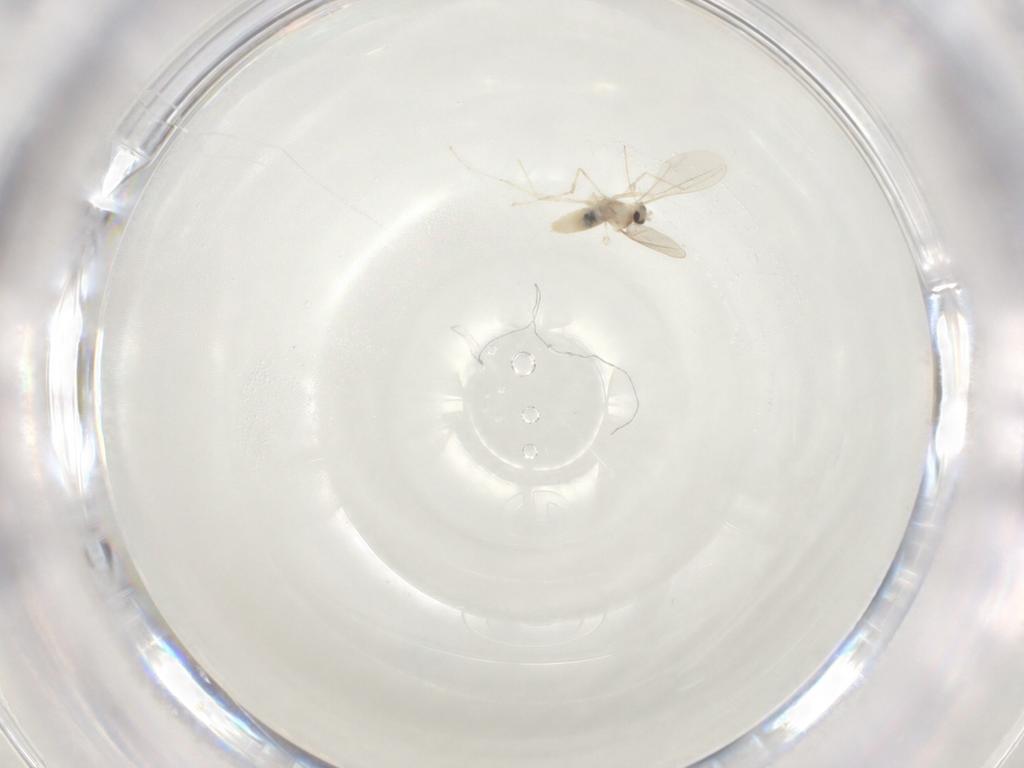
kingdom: Animalia
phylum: Arthropoda
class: Insecta
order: Diptera
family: Cecidomyiidae
